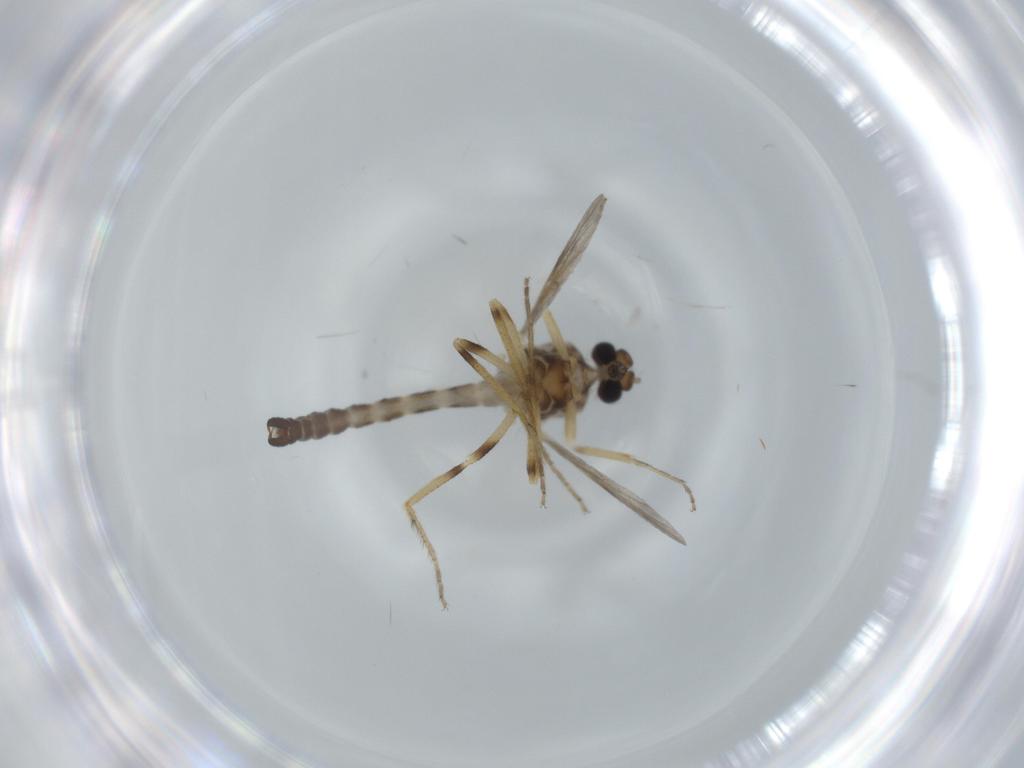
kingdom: Animalia
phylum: Arthropoda
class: Insecta
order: Diptera
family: Cecidomyiidae
